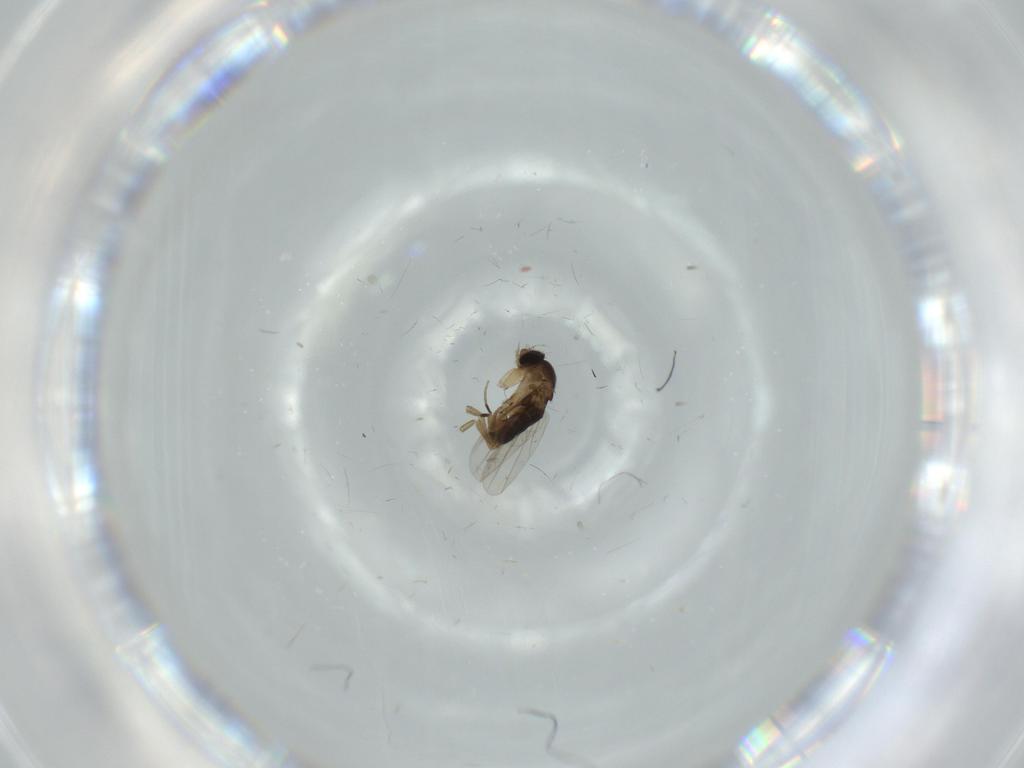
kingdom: Animalia
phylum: Arthropoda
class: Insecta
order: Diptera
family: Phoridae
